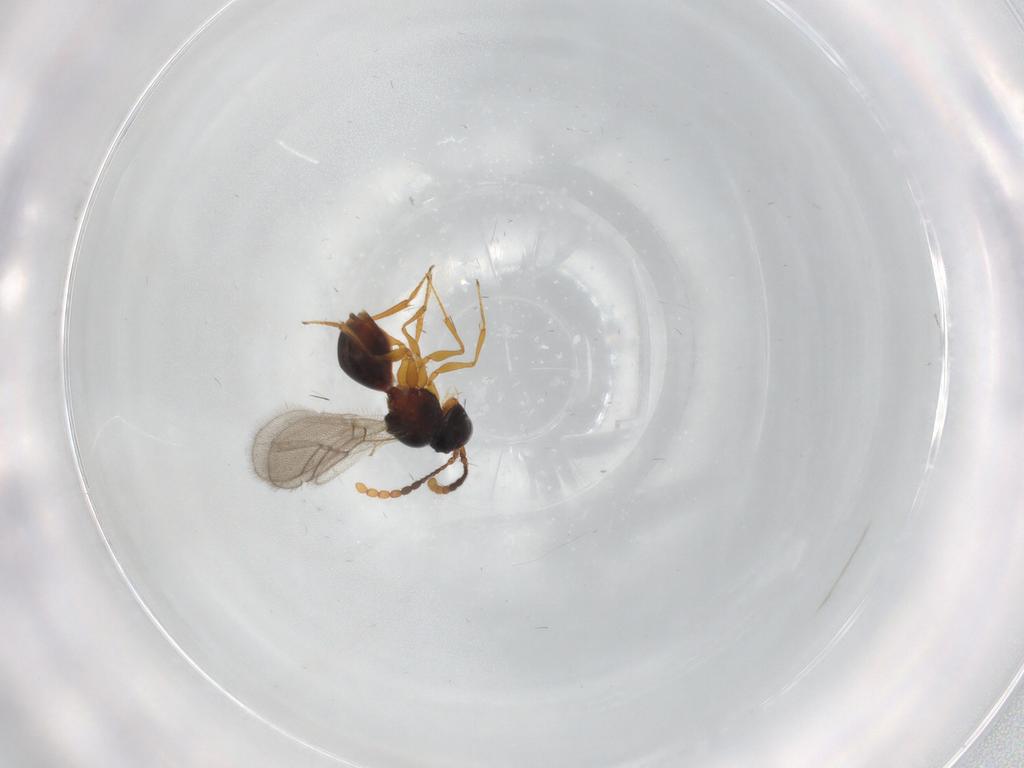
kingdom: Animalia
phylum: Arthropoda
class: Insecta
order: Hymenoptera
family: Figitidae
